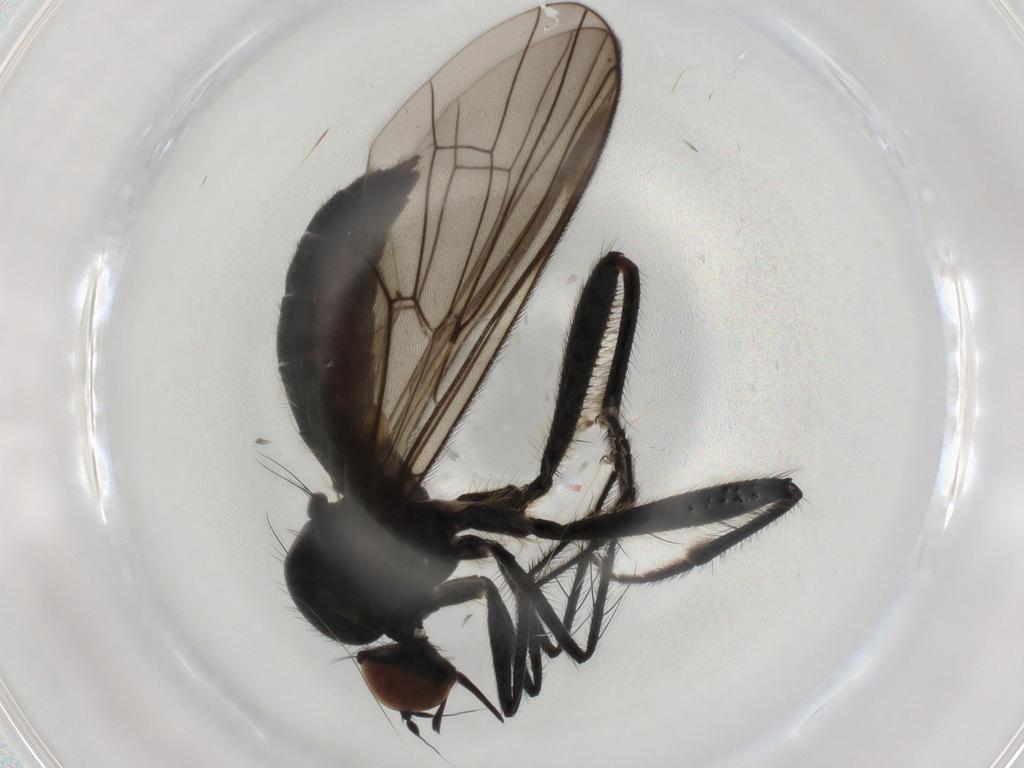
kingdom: Animalia
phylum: Arthropoda
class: Insecta
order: Diptera
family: Hybotidae
